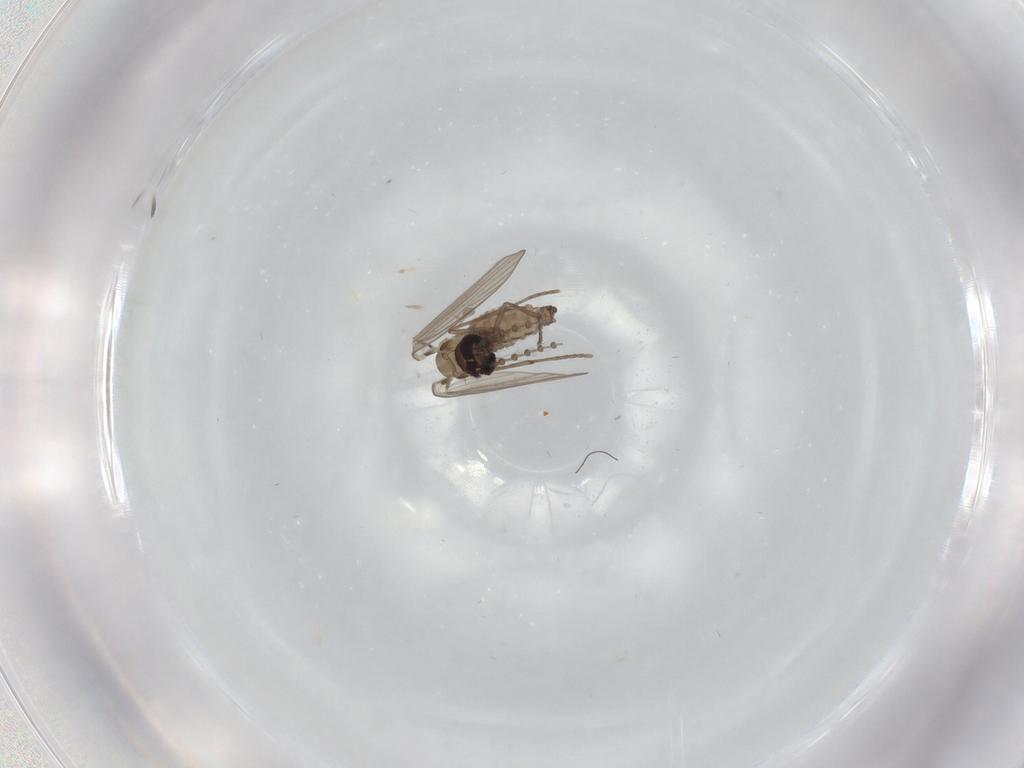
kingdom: Animalia
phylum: Arthropoda
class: Insecta
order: Diptera
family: Psychodidae
